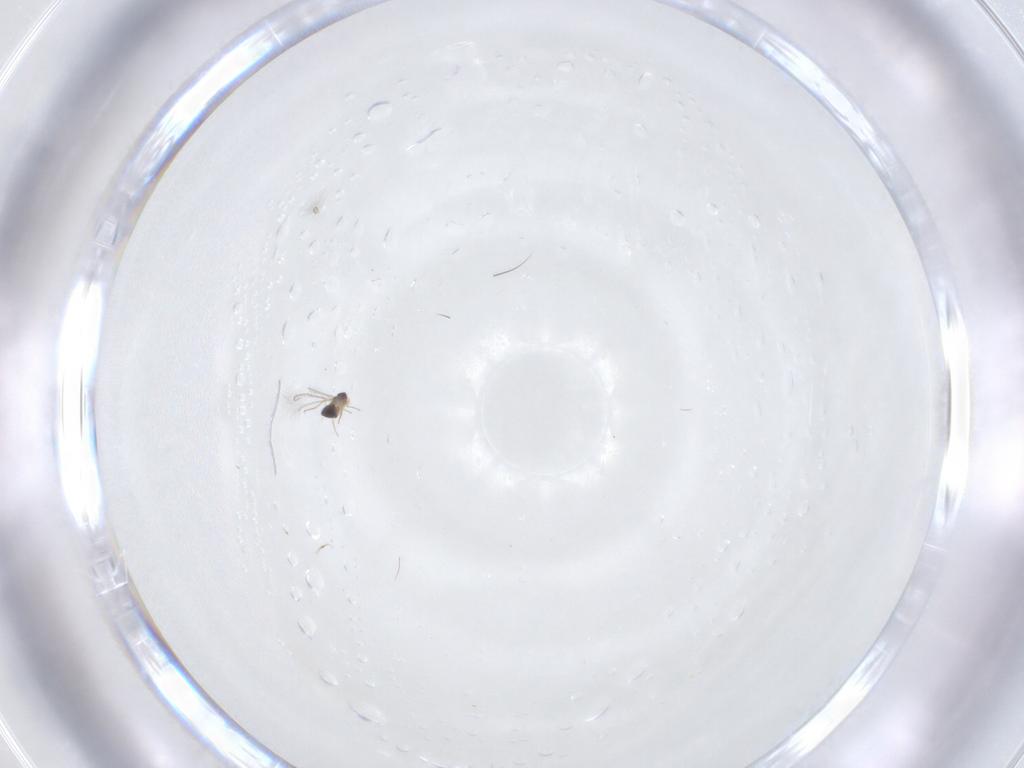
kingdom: Animalia
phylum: Arthropoda
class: Insecta
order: Hymenoptera
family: Mymaridae
